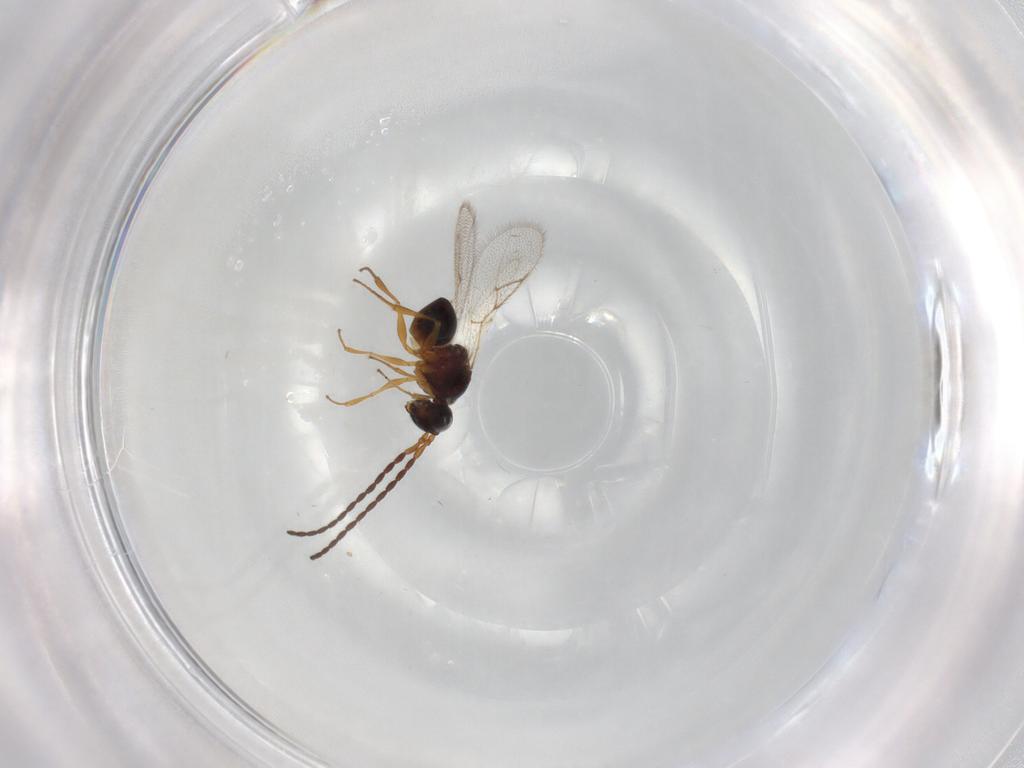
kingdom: Animalia
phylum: Arthropoda
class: Insecta
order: Hymenoptera
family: Figitidae
